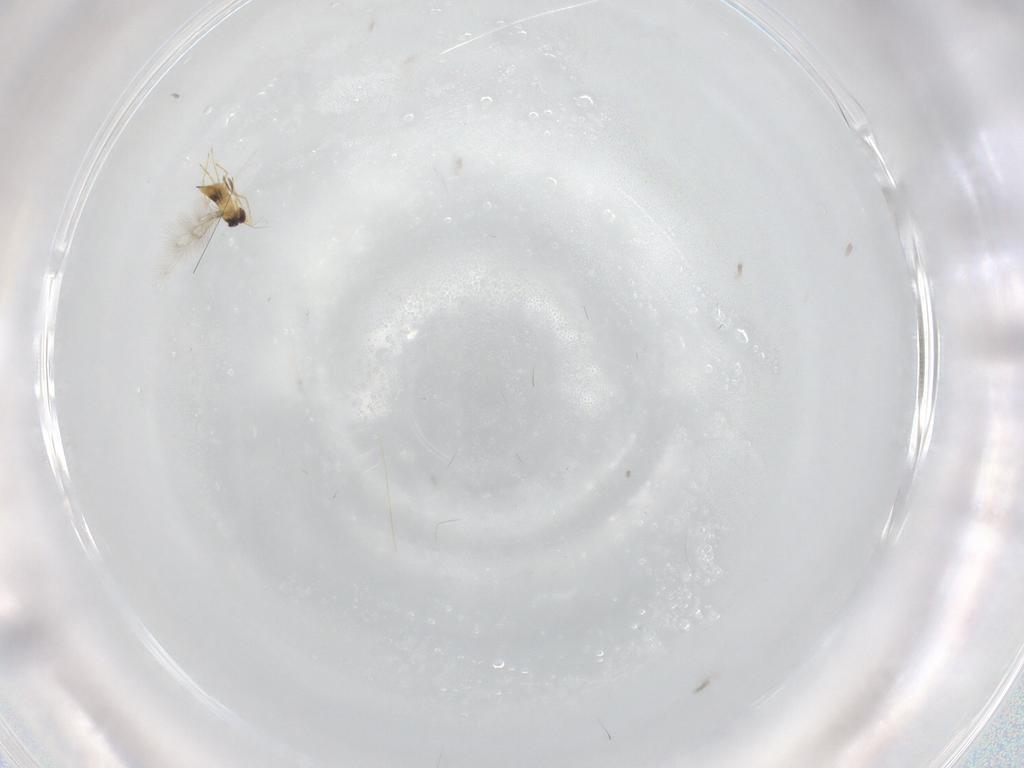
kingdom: Animalia
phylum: Arthropoda
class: Insecta
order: Hymenoptera
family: Mymaridae
